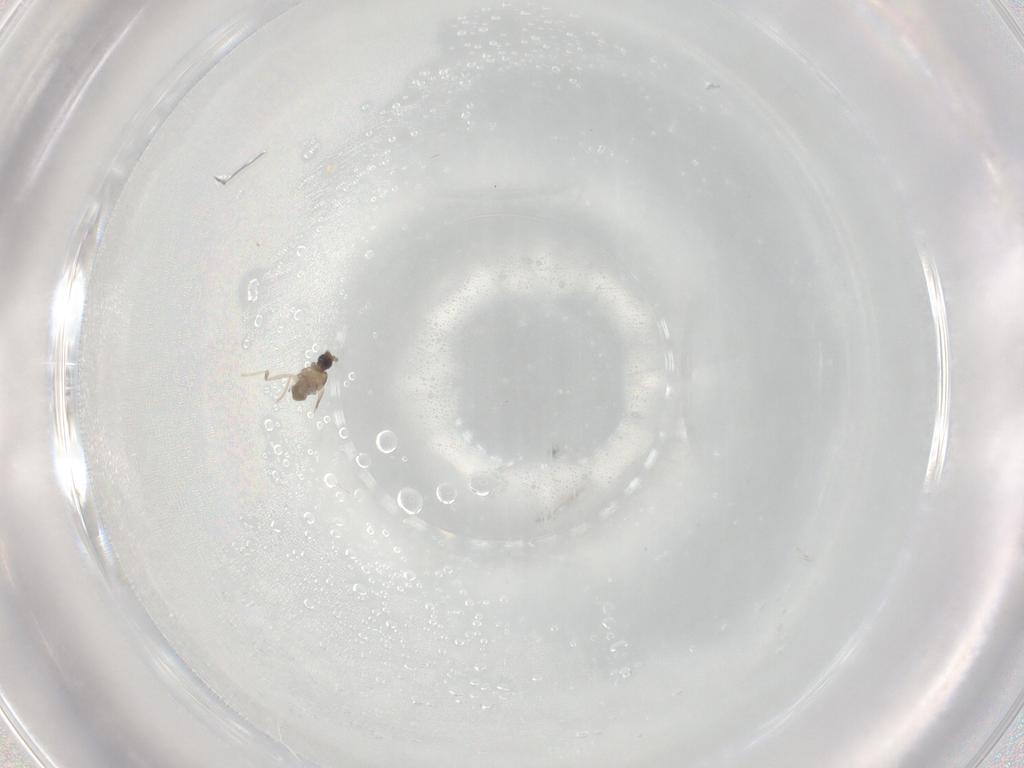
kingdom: Animalia
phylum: Arthropoda
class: Insecta
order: Diptera
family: Cecidomyiidae
